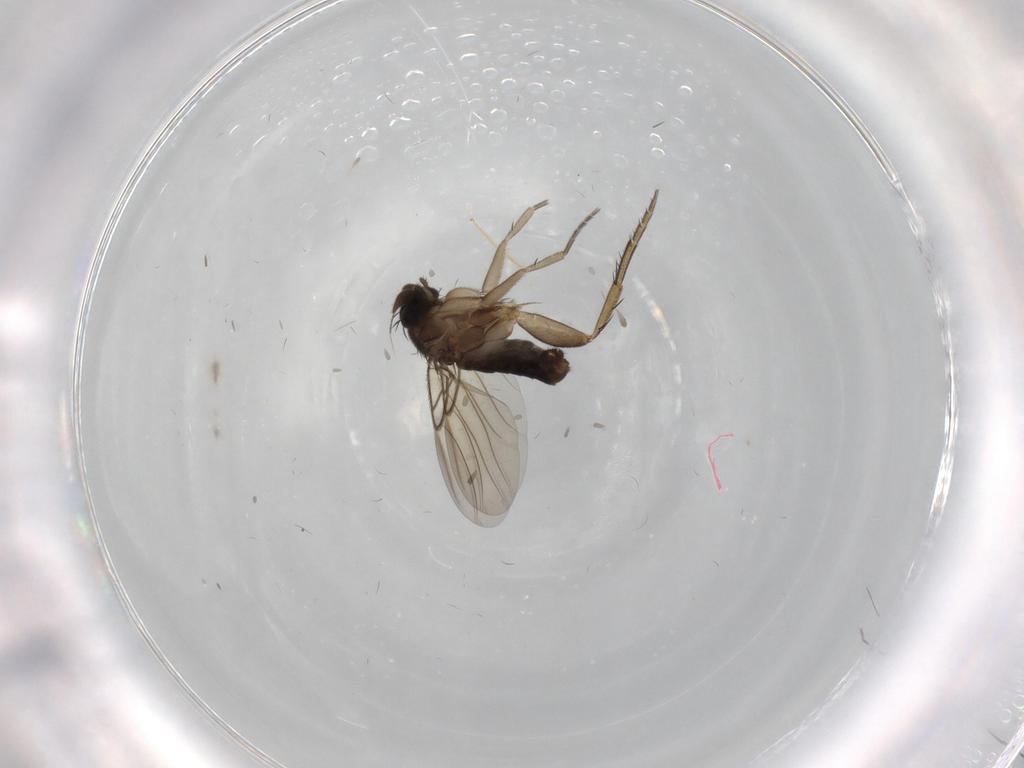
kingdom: Animalia
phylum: Arthropoda
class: Insecta
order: Diptera
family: Phoridae
